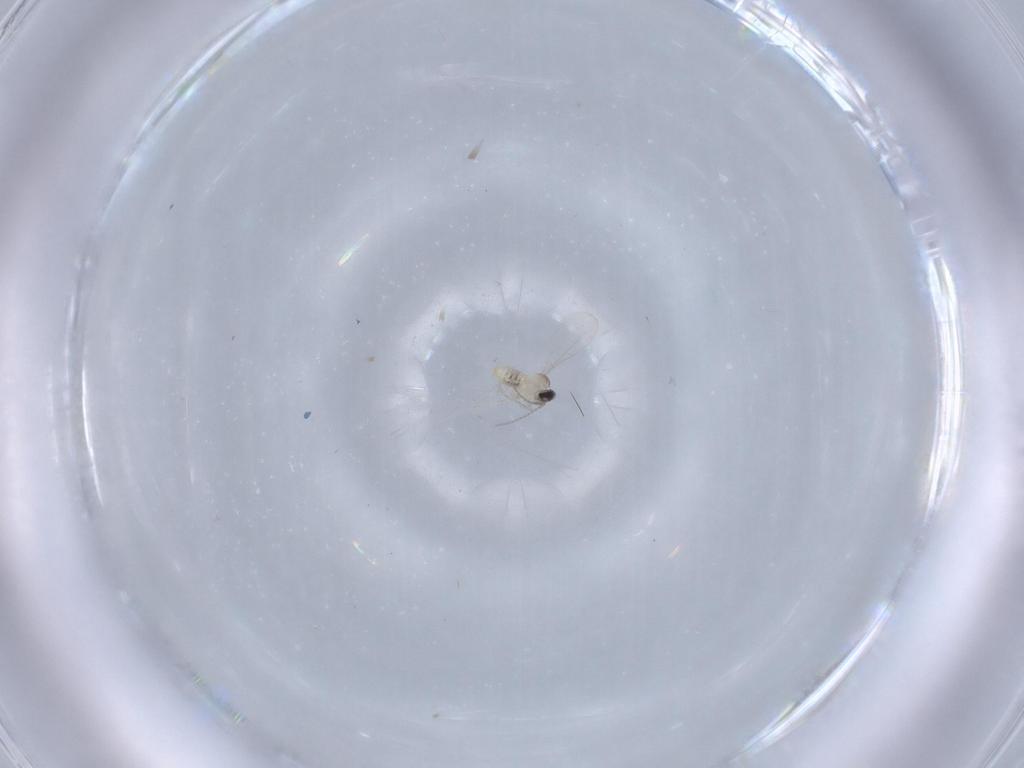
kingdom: Animalia
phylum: Arthropoda
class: Insecta
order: Diptera
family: Cecidomyiidae
